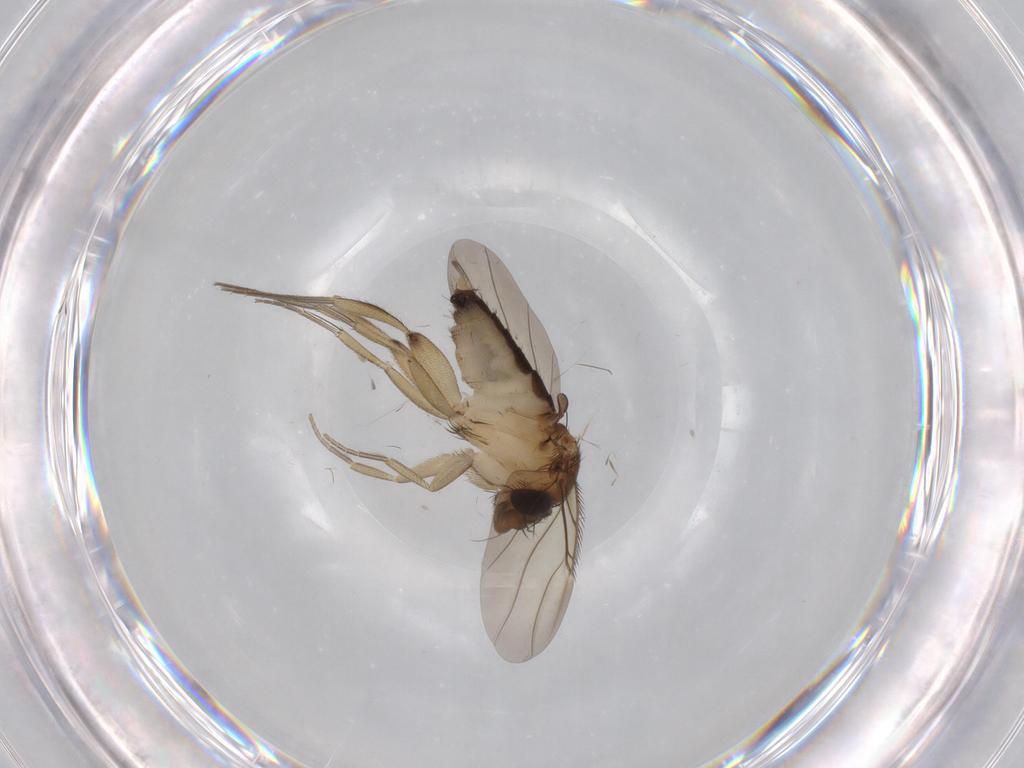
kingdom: Animalia
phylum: Arthropoda
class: Insecta
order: Diptera
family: Phoridae
